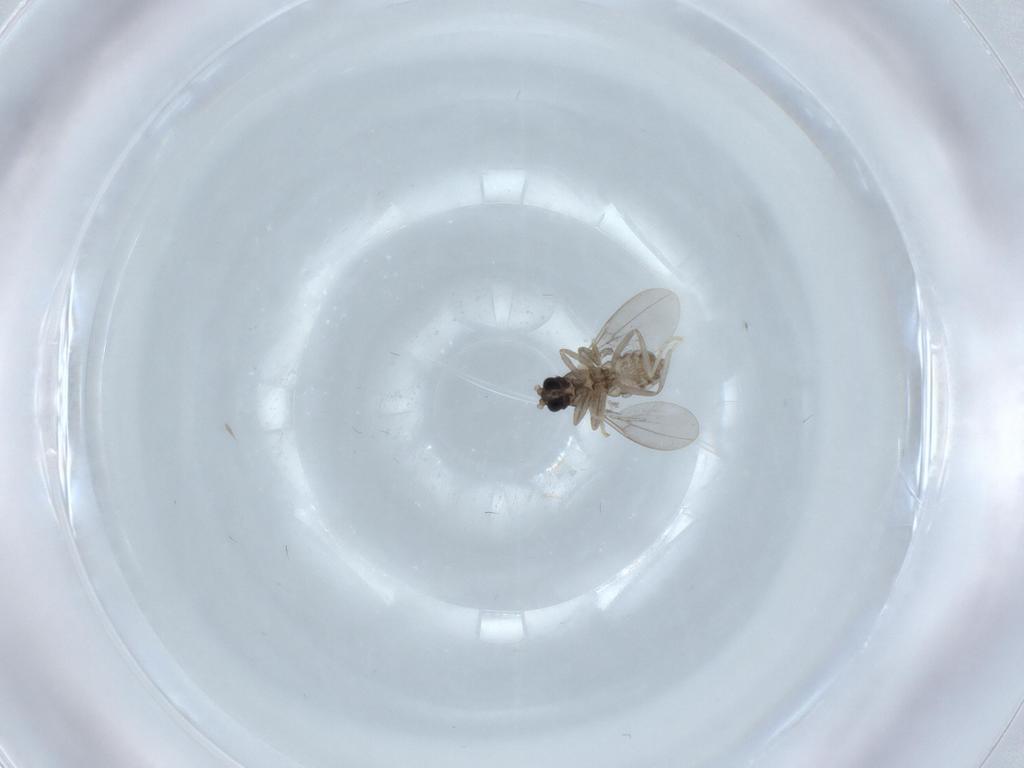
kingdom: Animalia
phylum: Arthropoda
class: Insecta
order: Diptera
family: Cecidomyiidae
